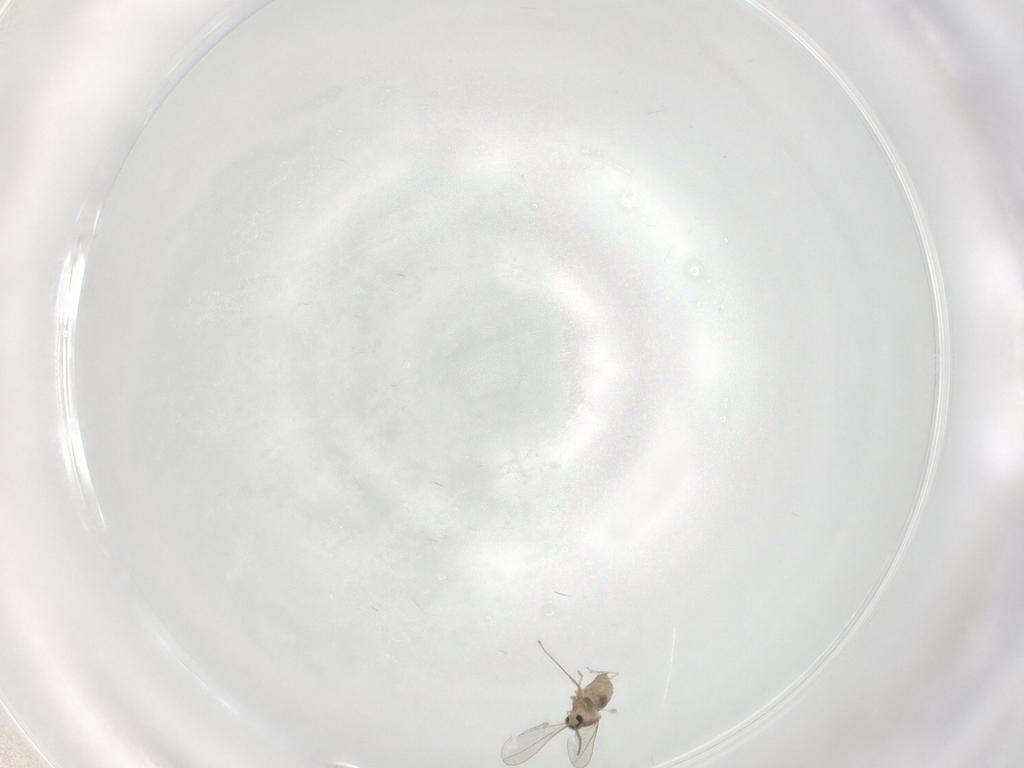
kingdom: Animalia
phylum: Arthropoda
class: Insecta
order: Diptera
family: Cecidomyiidae
